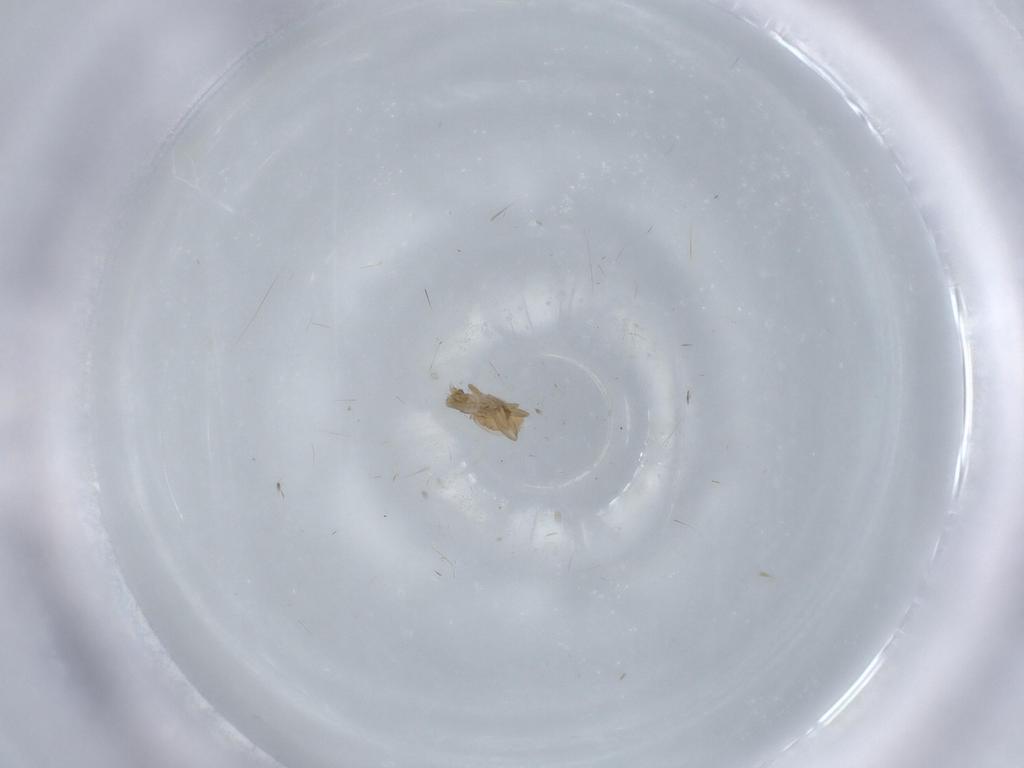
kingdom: Animalia
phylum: Arthropoda
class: Insecta
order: Diptera
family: Phoridae
